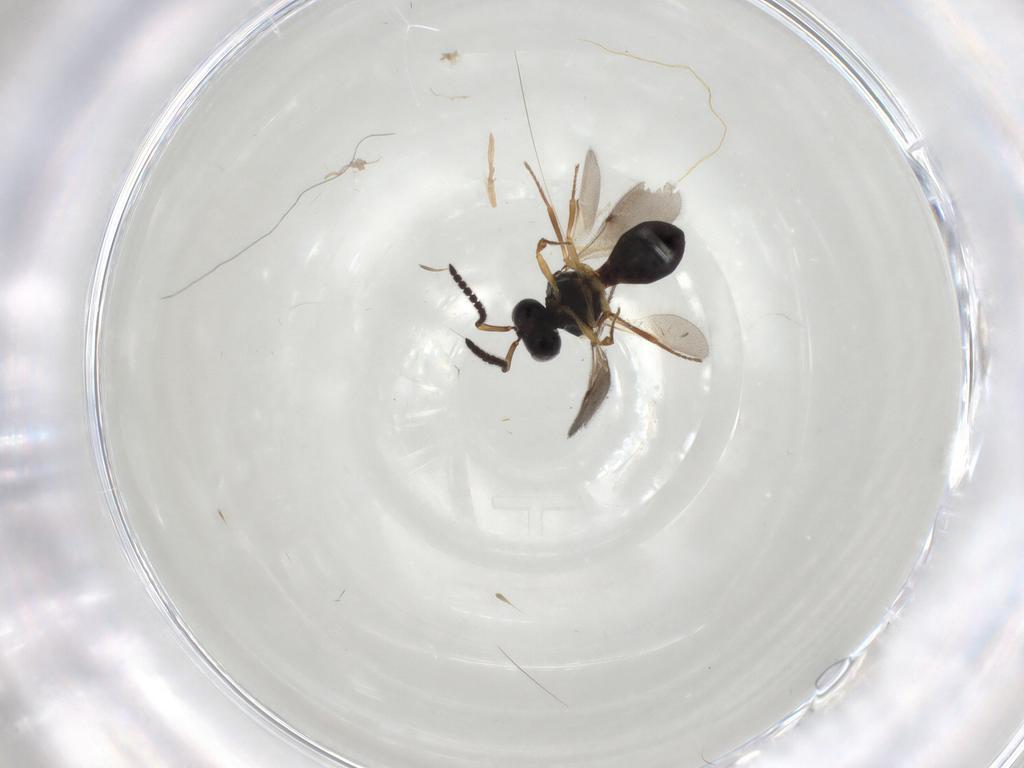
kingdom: Animalia
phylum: Arthropoda
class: Insecta
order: Hymenoptera
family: Scelionidae
